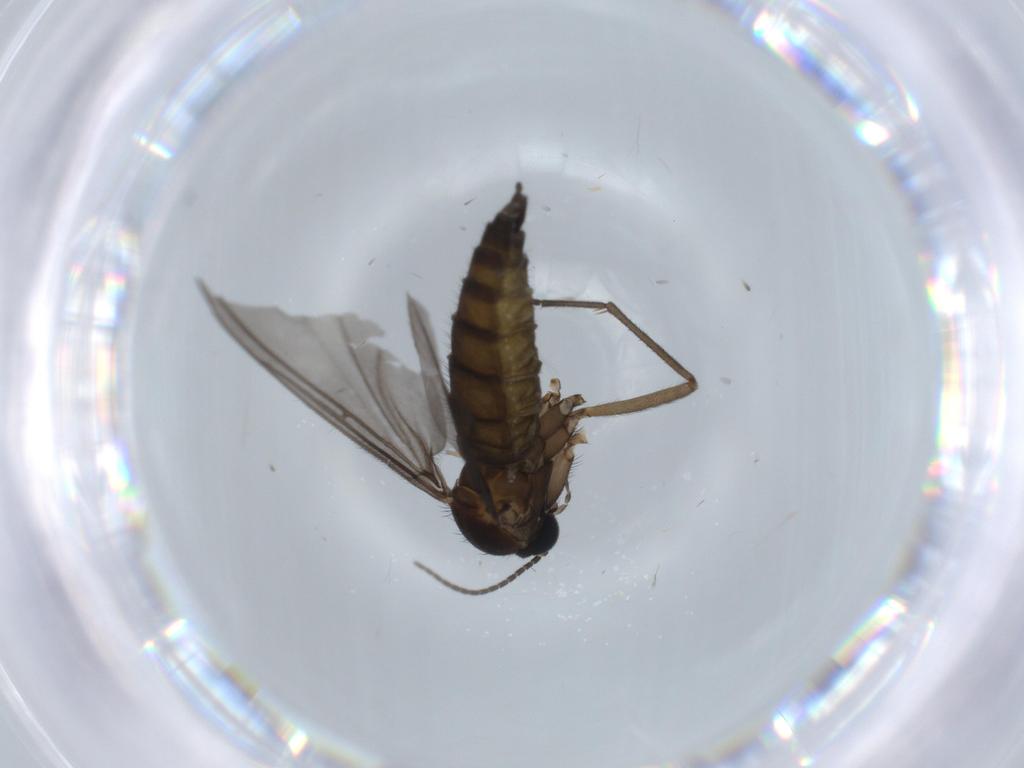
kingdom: Animalia
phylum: Arthropoda
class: Insecta
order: Diptera
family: Sciaridae
